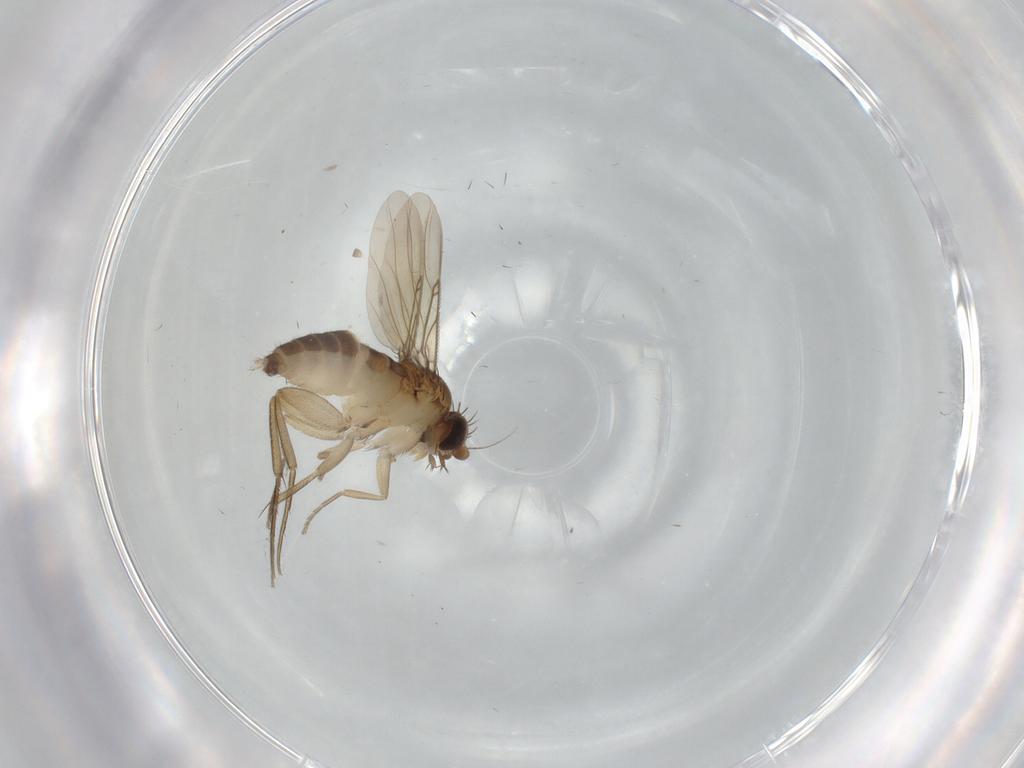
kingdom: Animalia
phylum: Arthropoda
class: Insecta
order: Diptera
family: Phoridae
